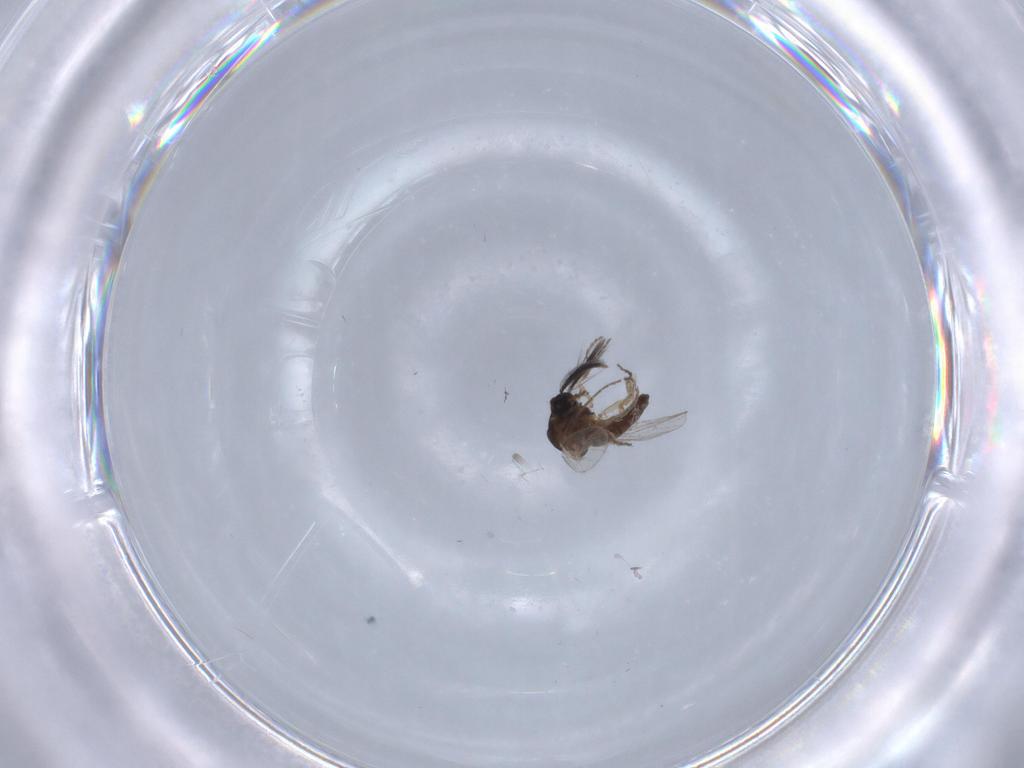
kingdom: Animalia
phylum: Arthropoda
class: Insecta
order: Diptera
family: Ceratopogonidae
